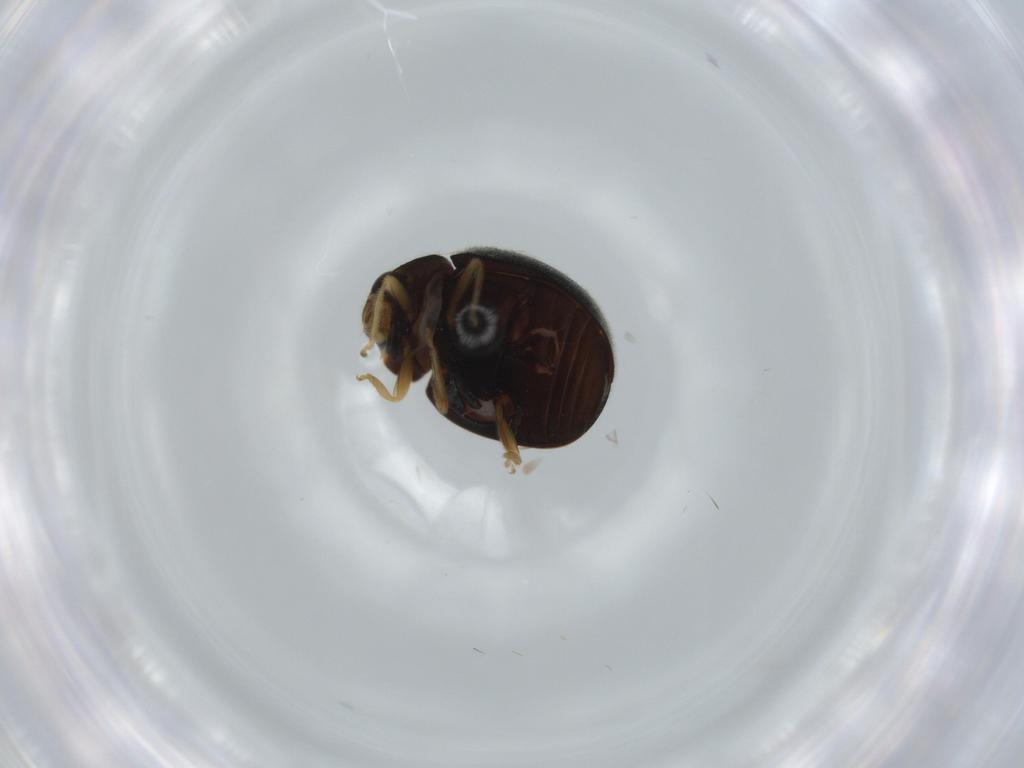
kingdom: Animalia
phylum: Arthropoda
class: Insecta
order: Coleoptera
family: Coccinellidae
